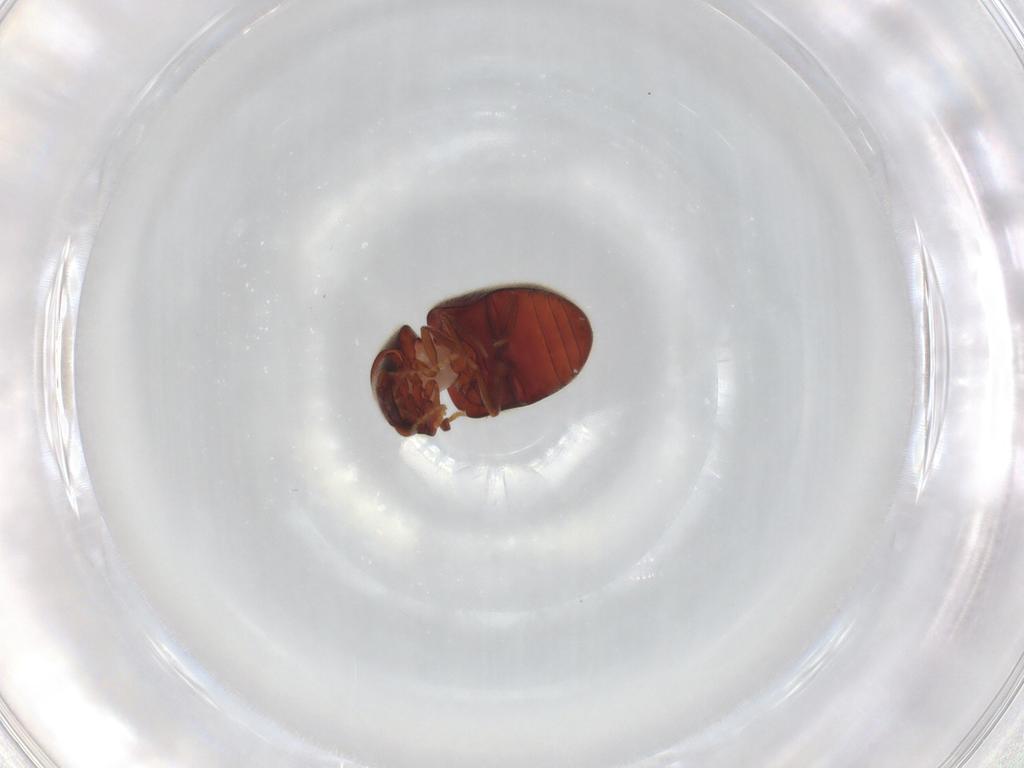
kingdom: Animalia
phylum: Arthropoda
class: Insecta
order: Coleoptera
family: Ptinidae
